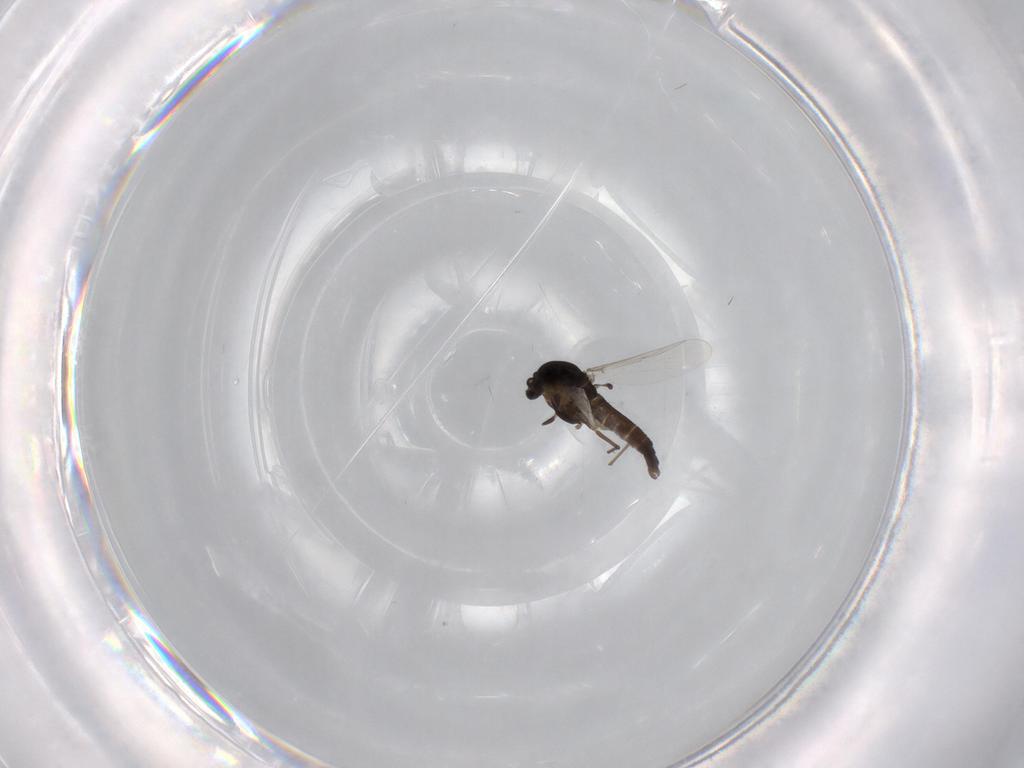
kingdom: Animalia
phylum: Arthropoda
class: Insecta
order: Diptera
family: Chironomidae
